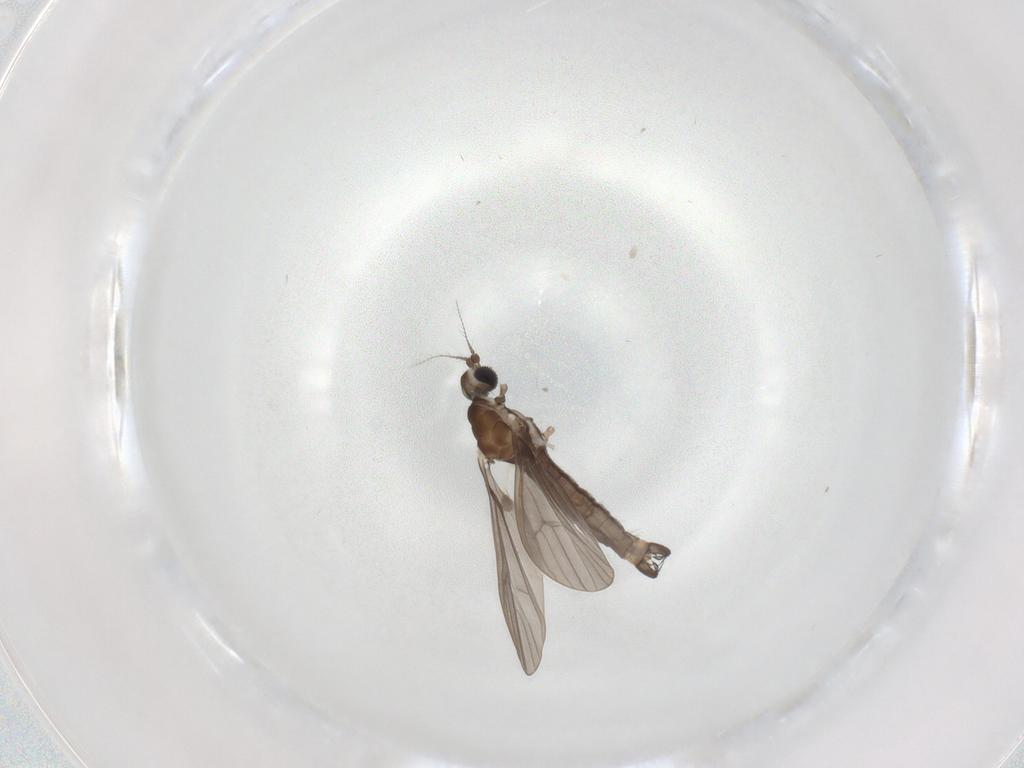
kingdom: Animalia
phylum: Arthropoda
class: Insecta
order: Diptera
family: Limoniidae
